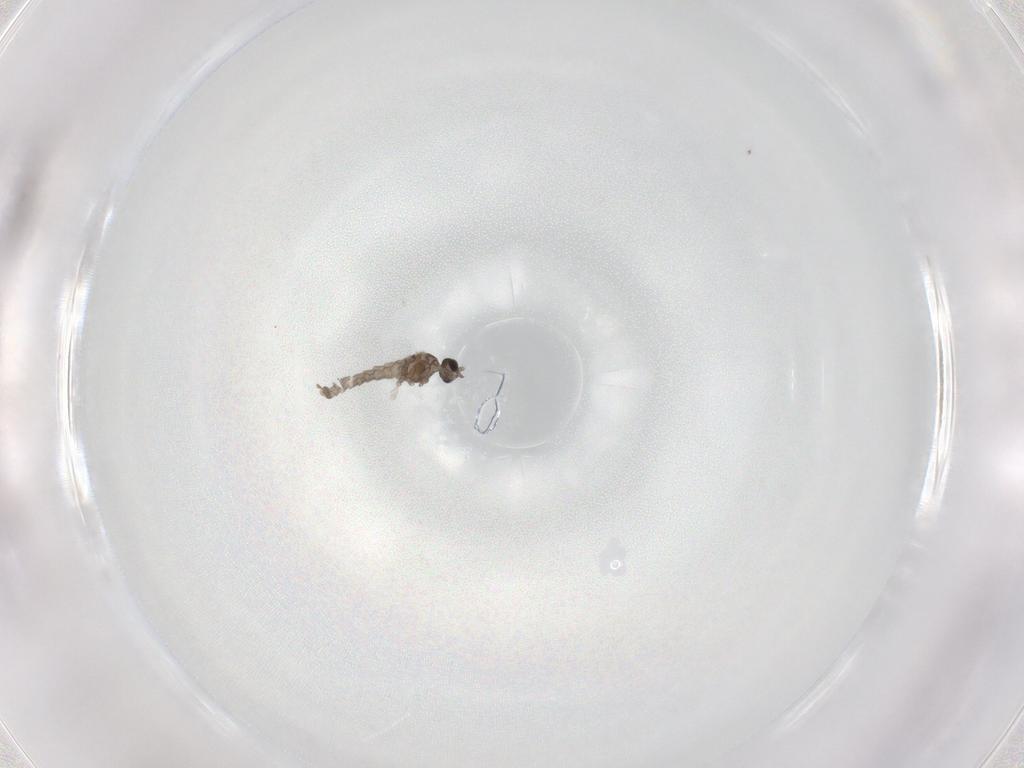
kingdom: Animalia
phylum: Arthropoda
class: Insecta
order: Diptera
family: Cecidomyiidae
